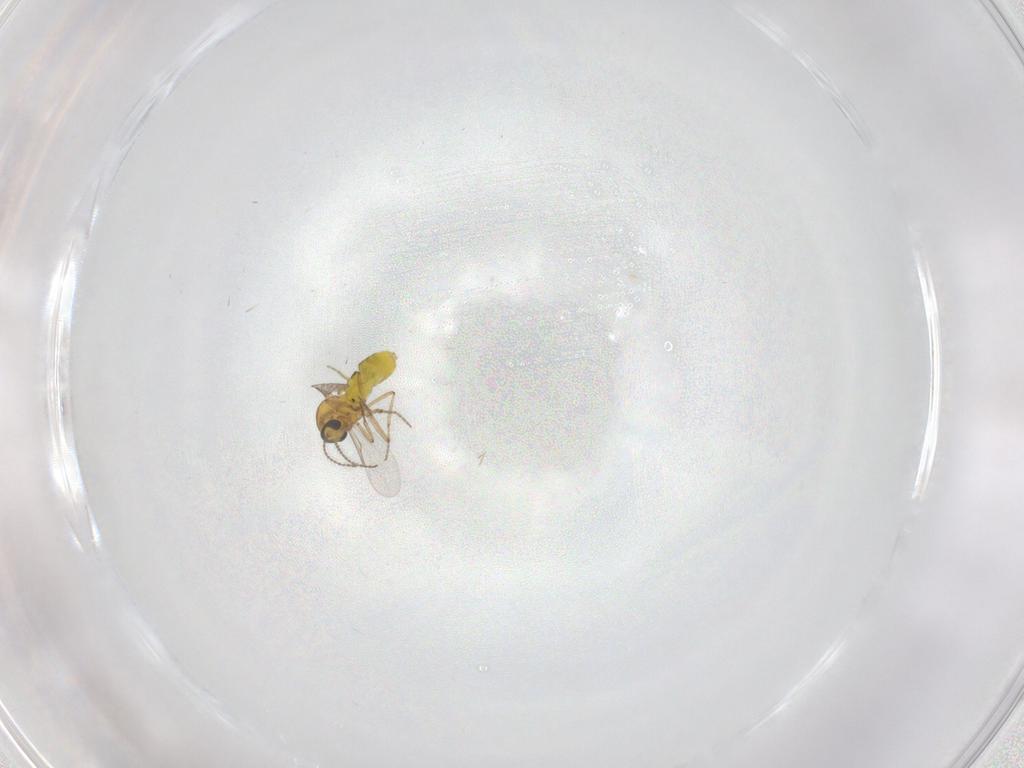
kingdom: Animalia
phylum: Arthropoda
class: Insecta
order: Diptera
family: Ceratopogonidae
